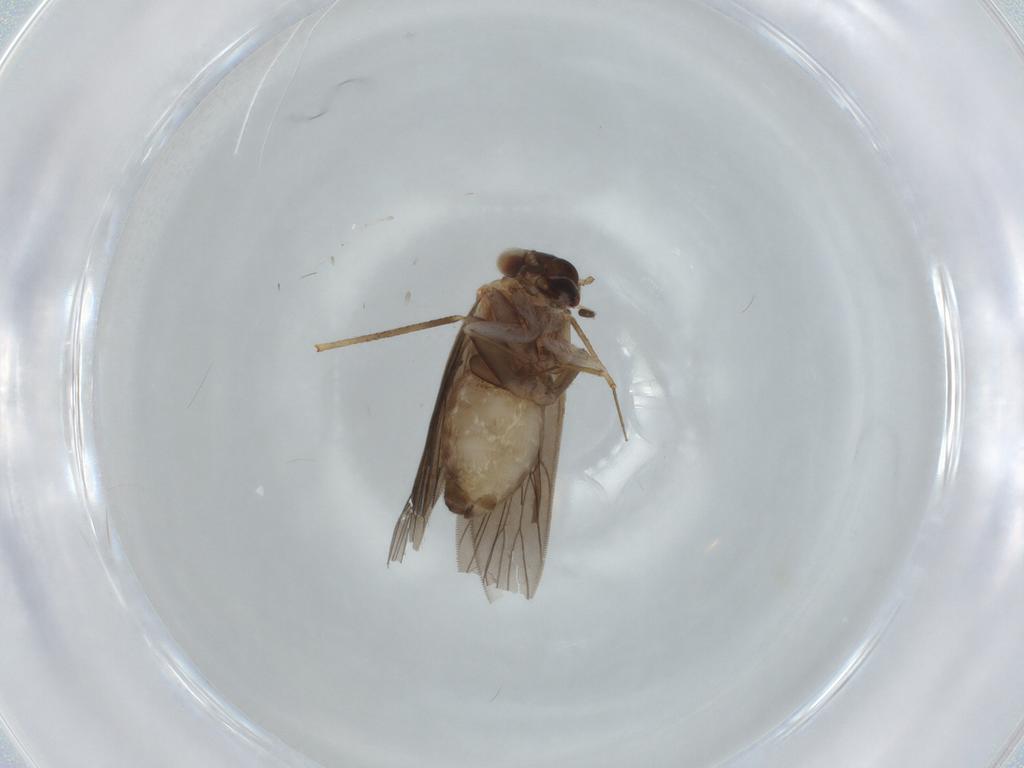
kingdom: Animalia
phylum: Arthropoda
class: Insecta
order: Psocodea
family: Lepidopsocidae
